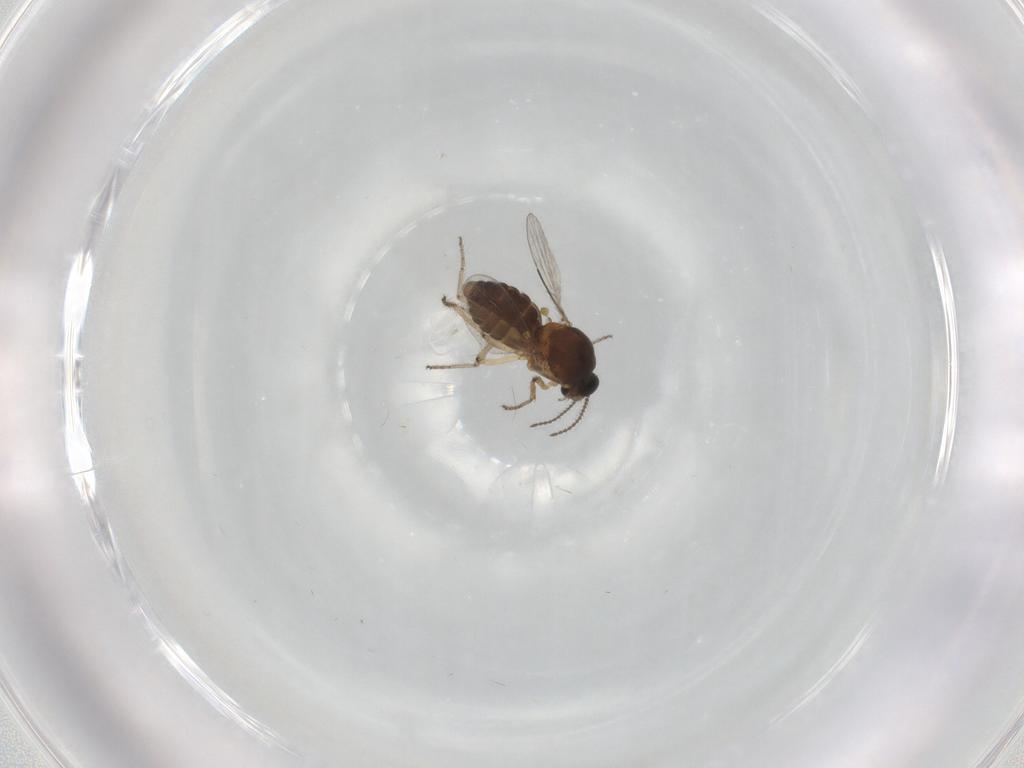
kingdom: Animalia
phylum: Arthropoda
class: Insecta
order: Diptera
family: Ceratopogonidae
